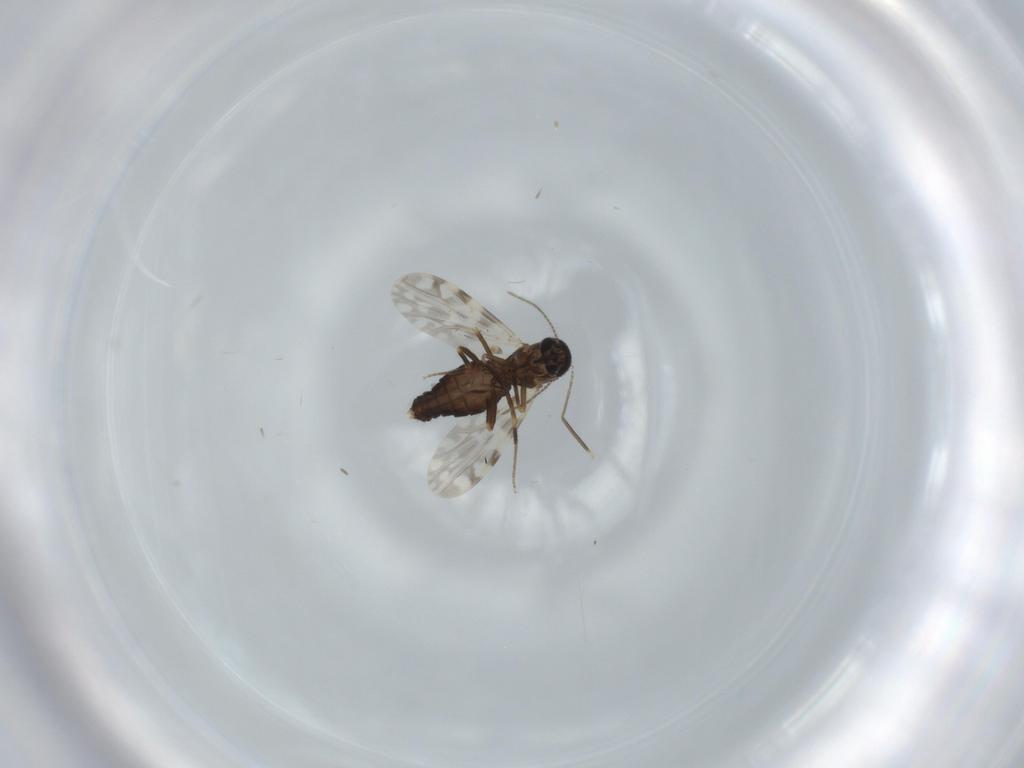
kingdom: Animalia
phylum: Arthropoda
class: Insecta
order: Diptera
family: Ceratopogonidae
